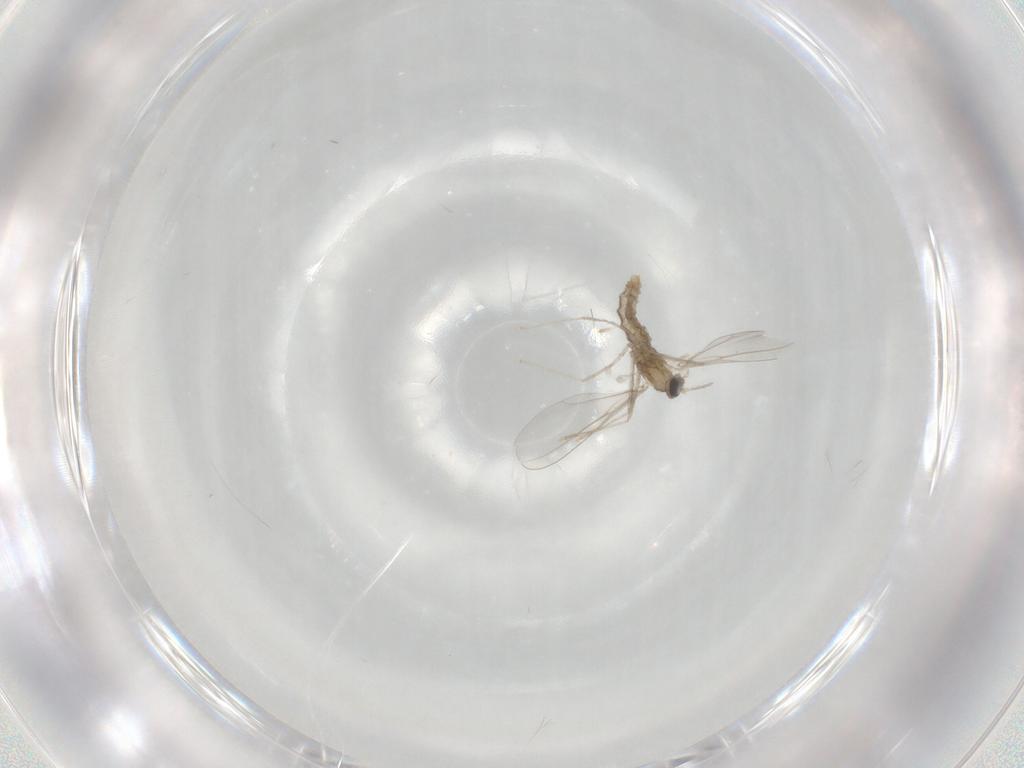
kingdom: Animalia
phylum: Arthropoda
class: Insecta
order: Diptera
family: Cecidomyiidae
